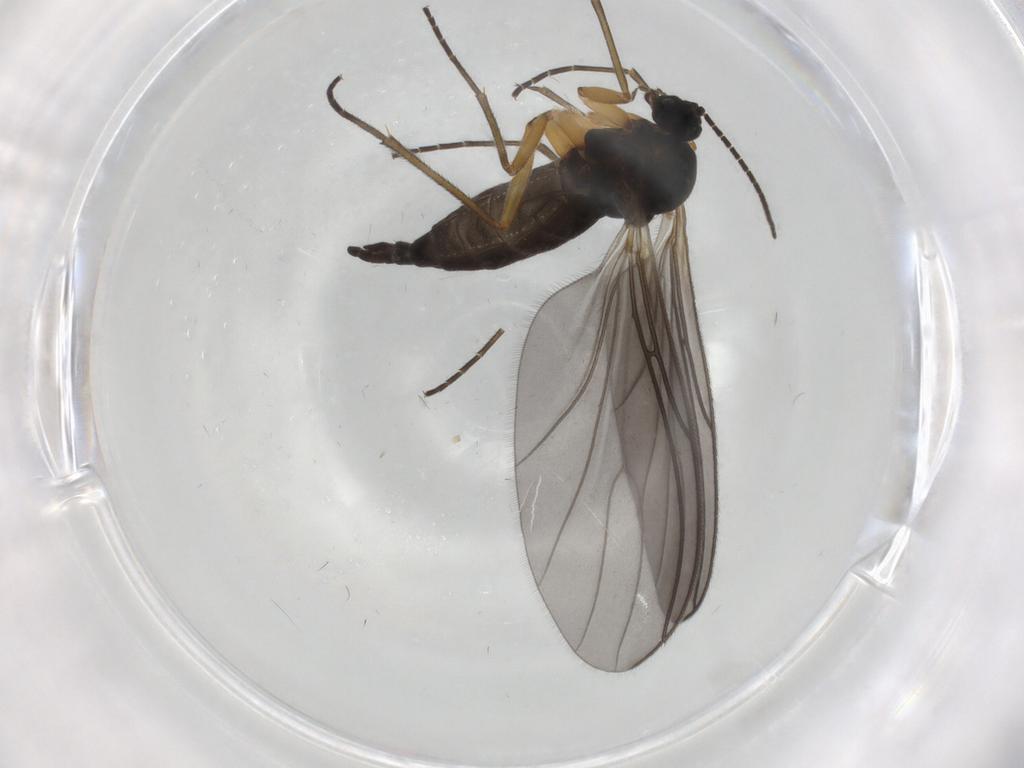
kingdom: Animalia
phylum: Arthropoda
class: Insecta
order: Diptera
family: Sciaridae
